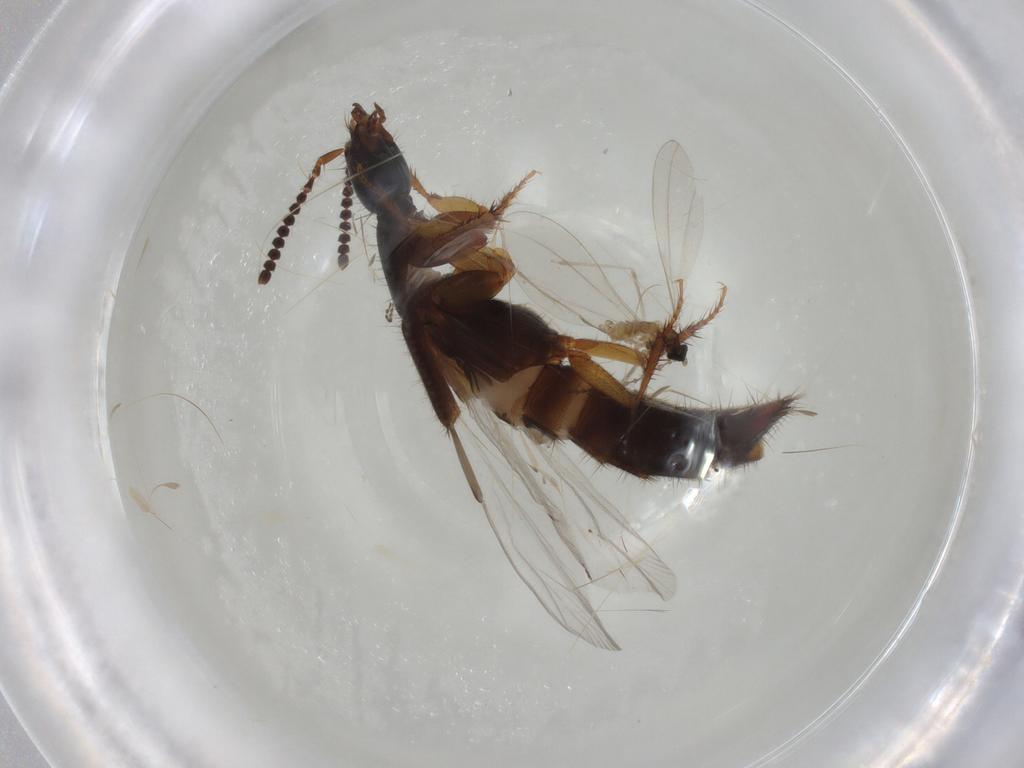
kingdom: Animalia
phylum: Arthropoda
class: Insecta
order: Diptera
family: Cecidomyiidae
